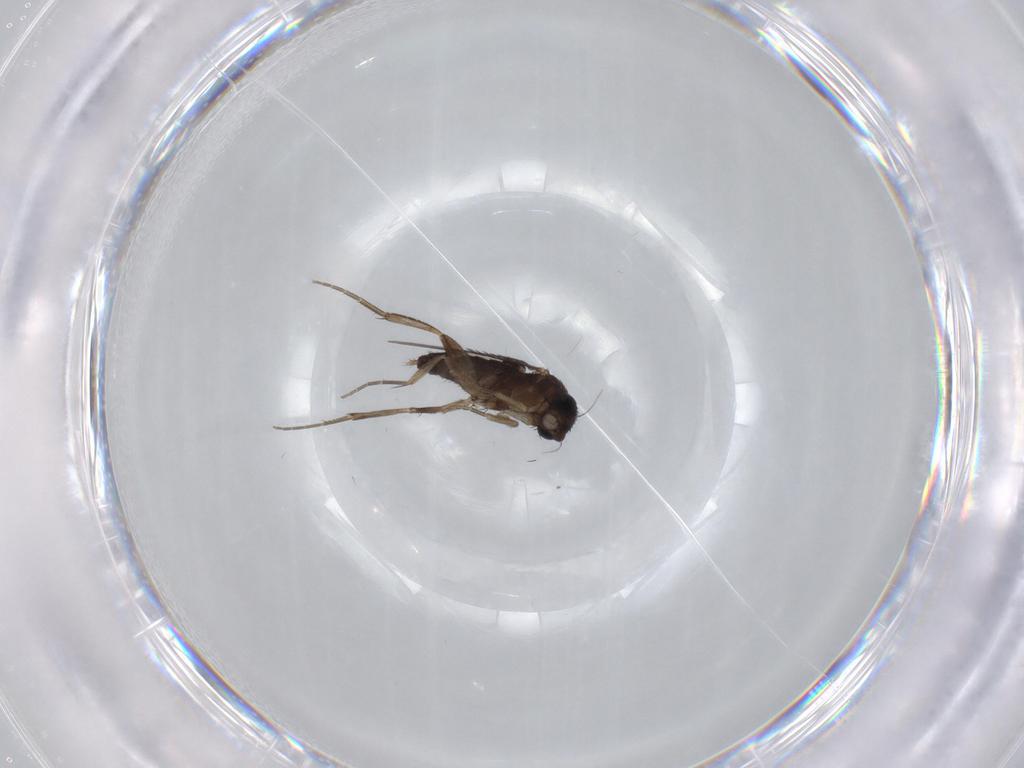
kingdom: Animalia
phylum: Arthropoda
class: Insecta
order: Diptera
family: Phoridae
